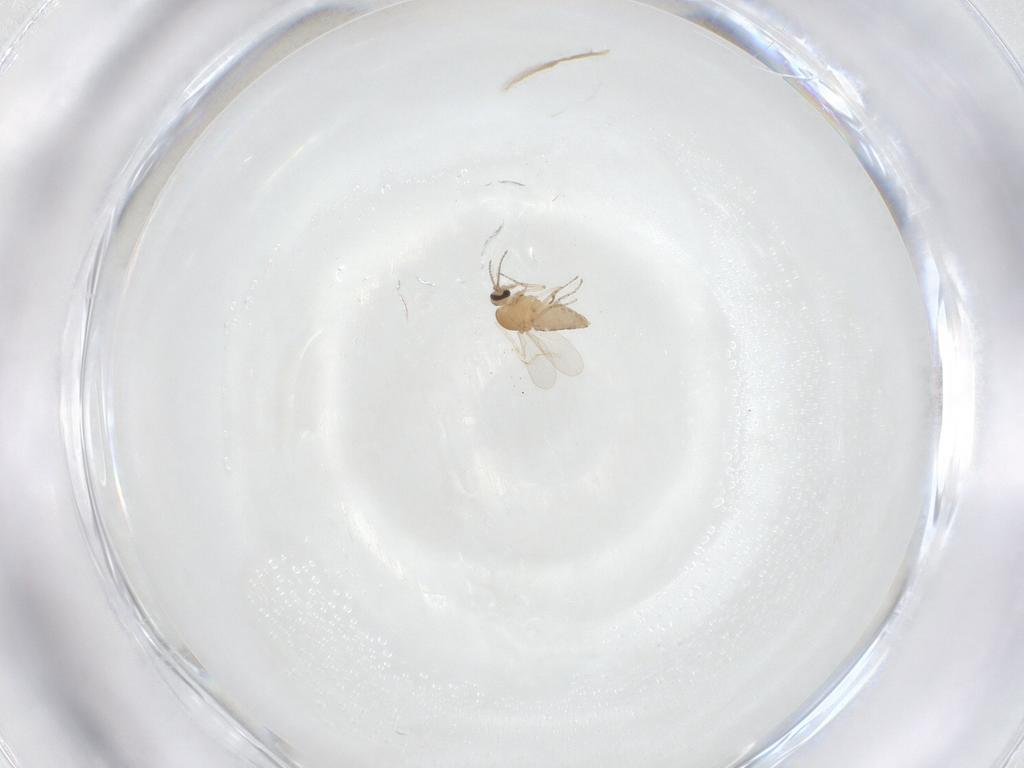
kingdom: Animalia
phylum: Arthropoda
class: Insecta
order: Diptera
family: Ceratopogonidae
